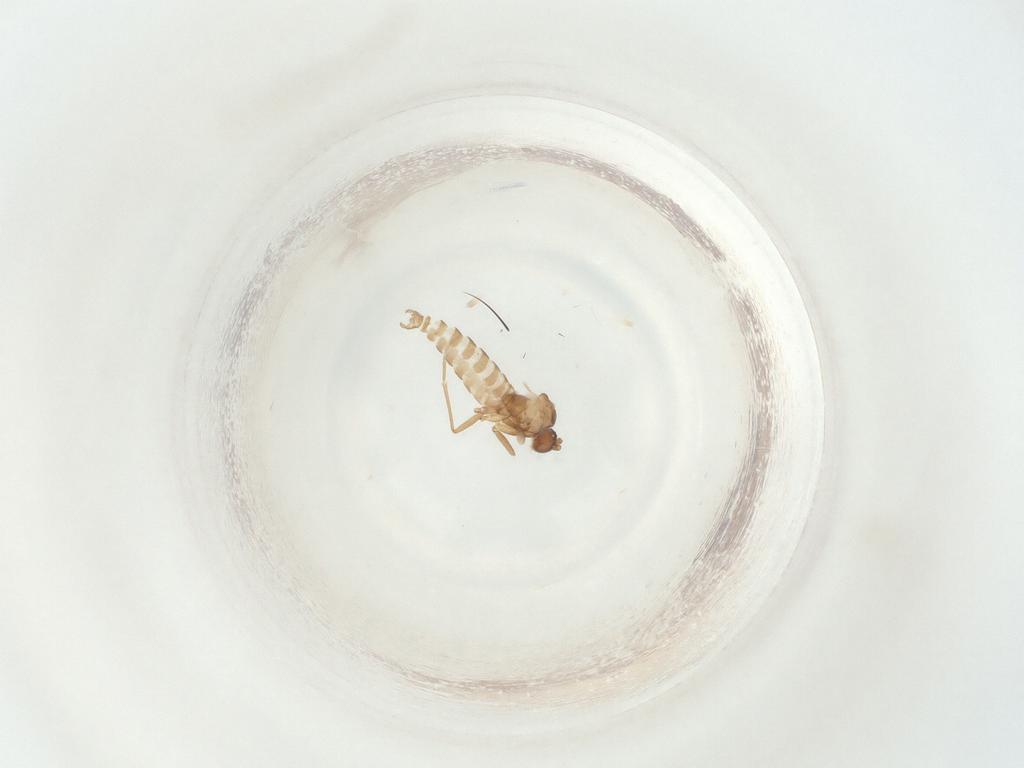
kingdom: Animalia
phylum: Arthropoda
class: Insecta
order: Diptera
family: Sciaridae
